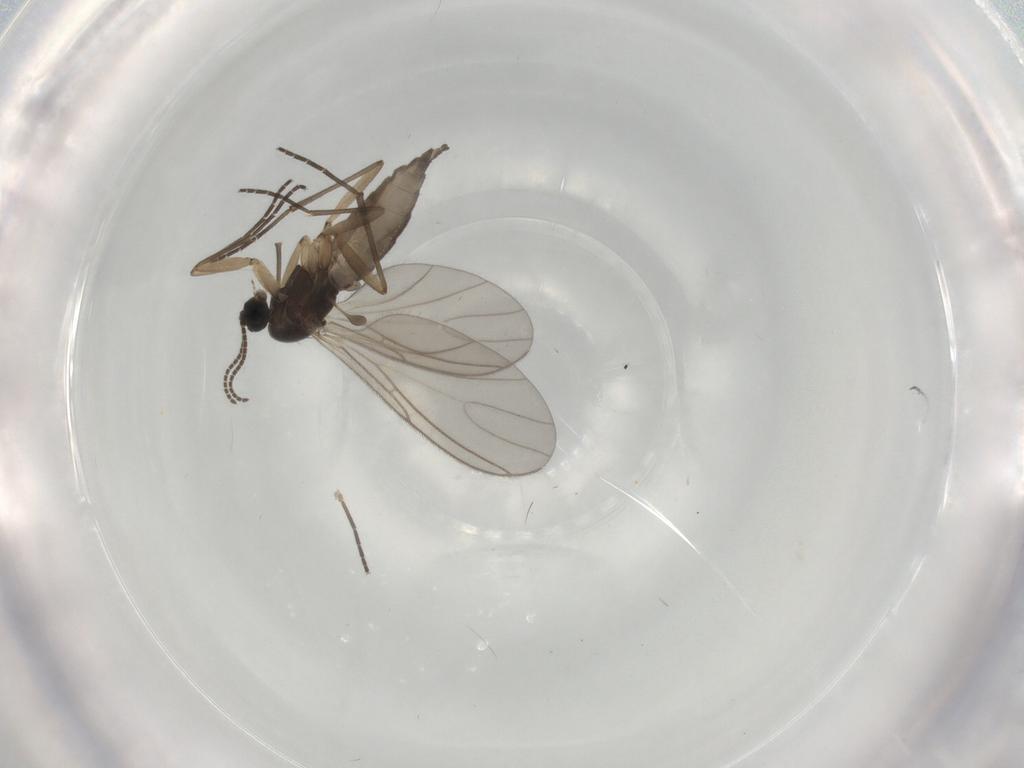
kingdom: Animalia
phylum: Arthropoda
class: Insecta
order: Diptera
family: Sciaridae
